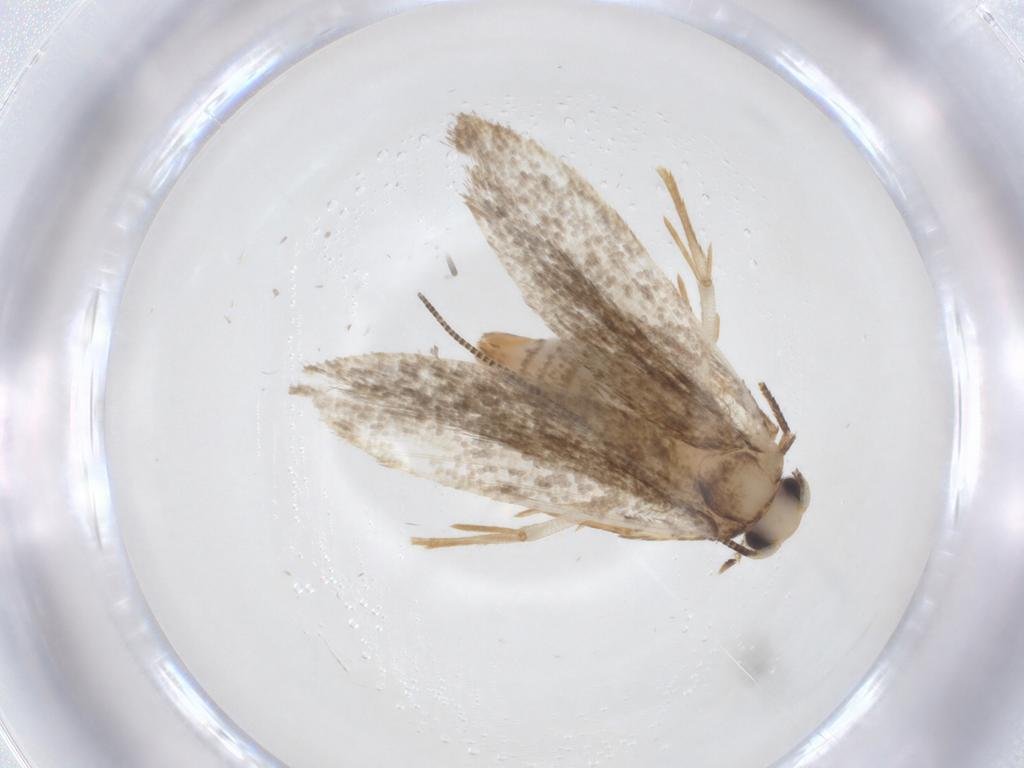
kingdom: Animalia
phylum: Arthropoda
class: Insecta
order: Lepidoptera
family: Tineidae
